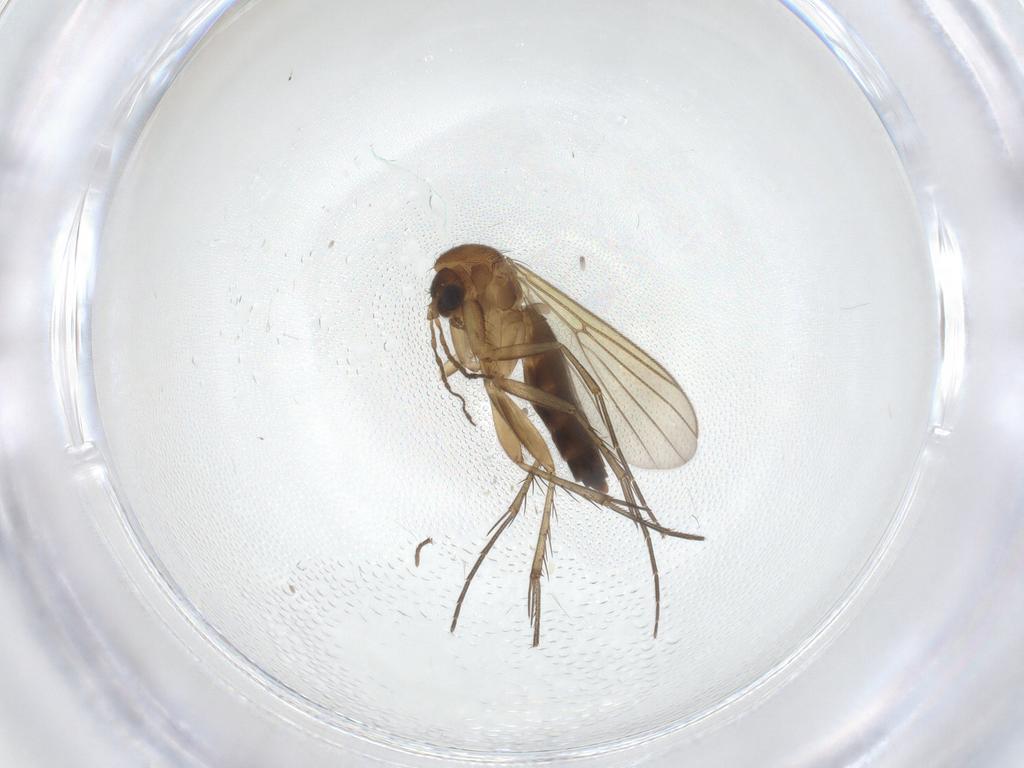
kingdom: Animalia
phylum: Arthropoda
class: Insecta
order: Diptera
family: Empididae
